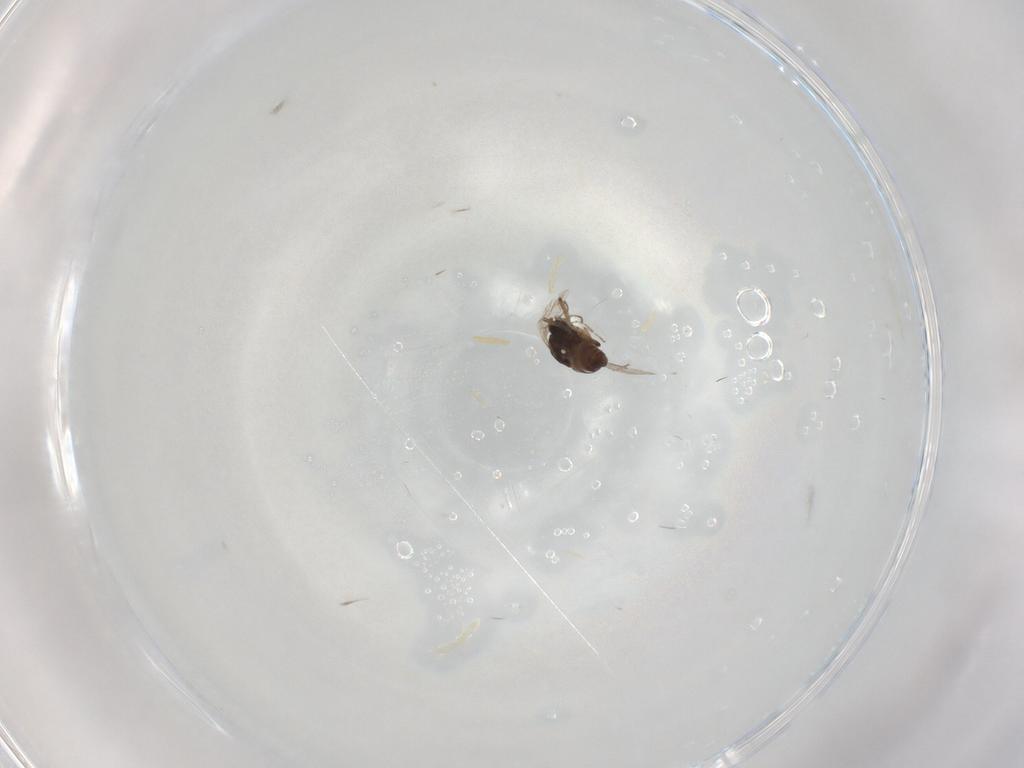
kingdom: Animalia
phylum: Arthropoda
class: Insecta
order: Diptera
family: Ceratopogonidae
